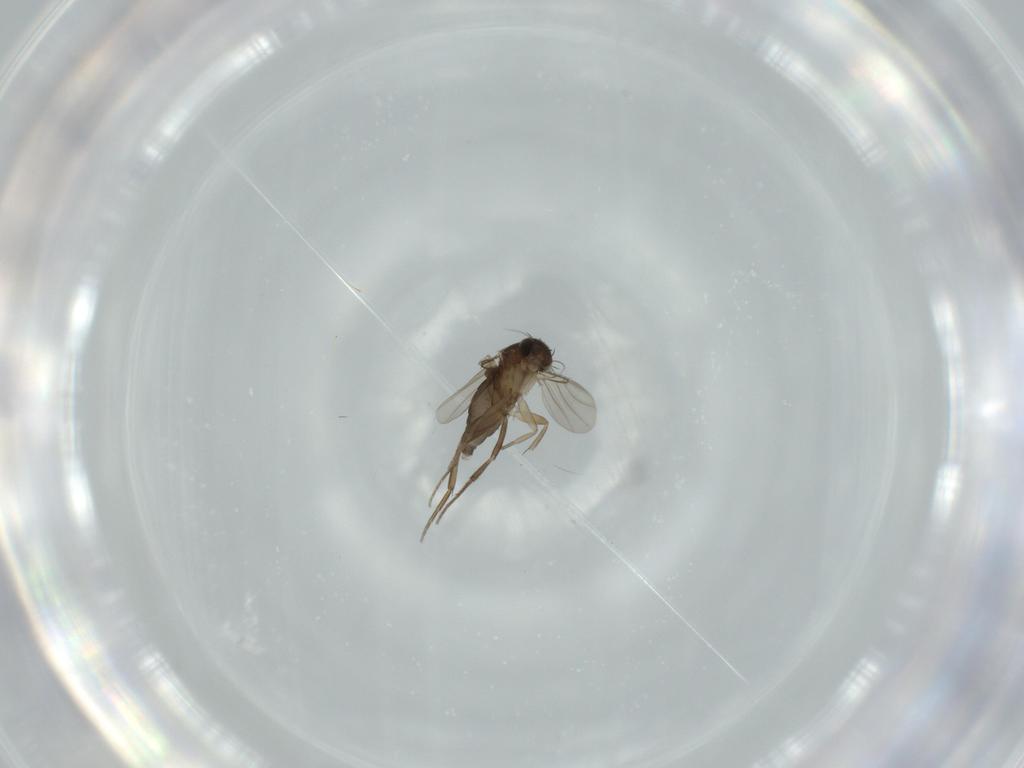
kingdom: Animalia
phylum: Arthropoda
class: Insecta
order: Diptera
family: Phoridae
